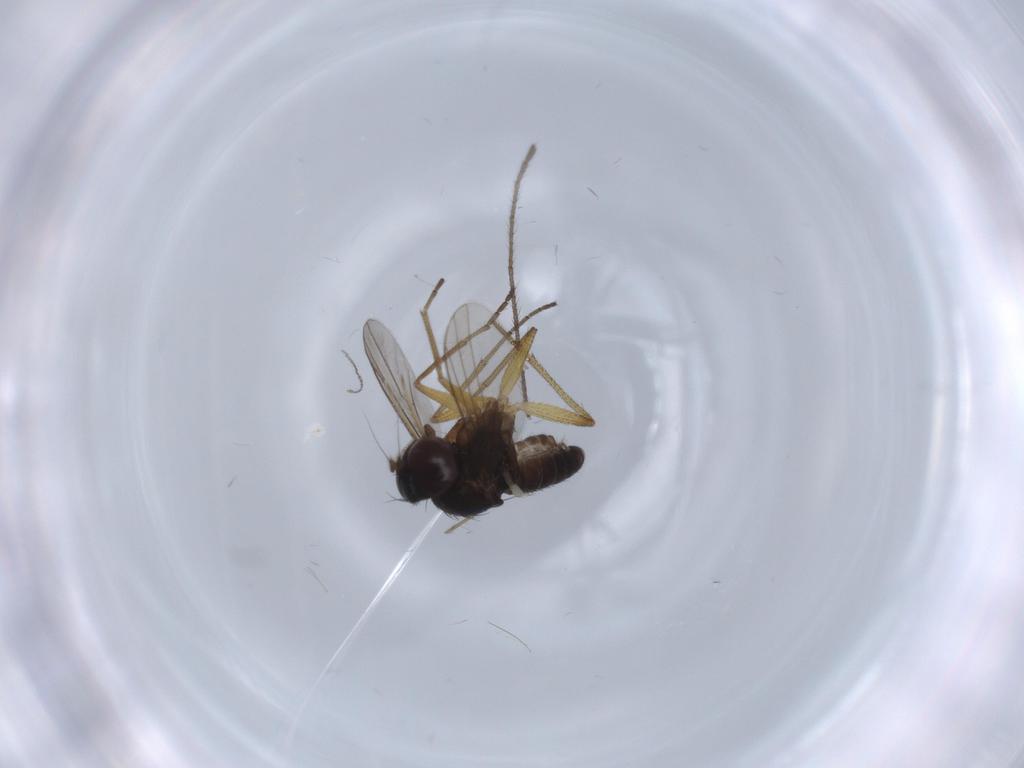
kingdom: Animalia
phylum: Arthropoda
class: Insecta
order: Diptera
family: Dolichopodidae
